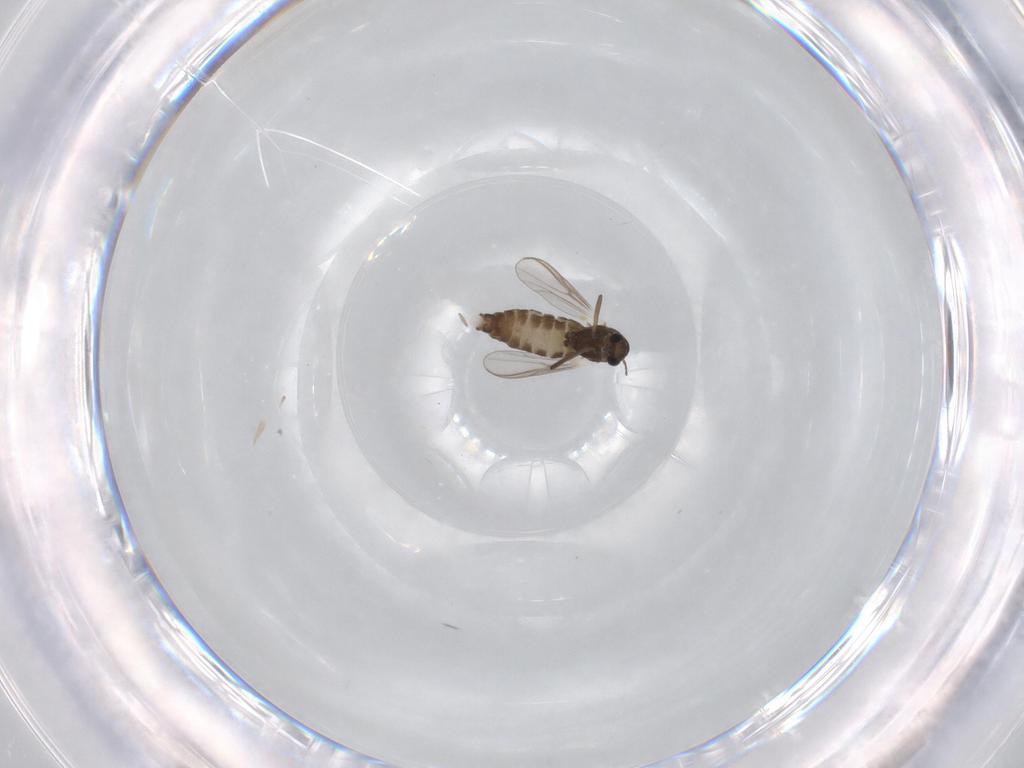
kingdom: Animalia
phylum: Arthropoda
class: Insecta
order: Diptera
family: Chironomidae
